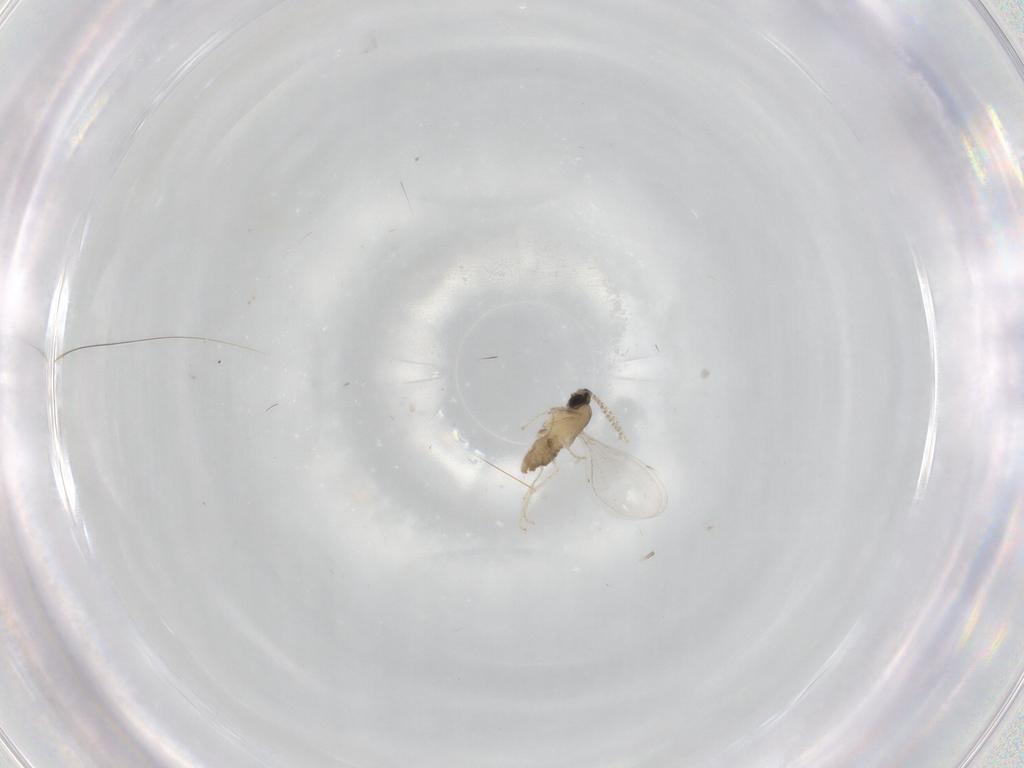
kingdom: Animalia
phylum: Arthropoda
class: Insecta
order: Diptera
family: Cecidomyiidae
